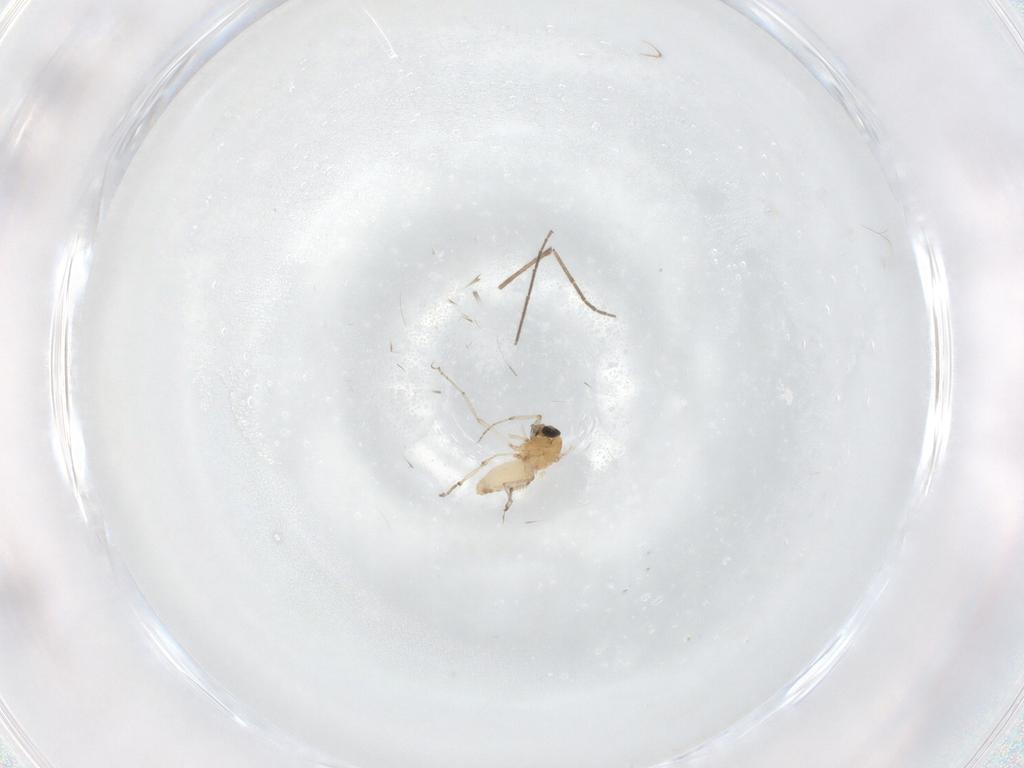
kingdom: Animalia
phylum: Arthropoda
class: Insecta
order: Diptera
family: Ceratopogonidae
